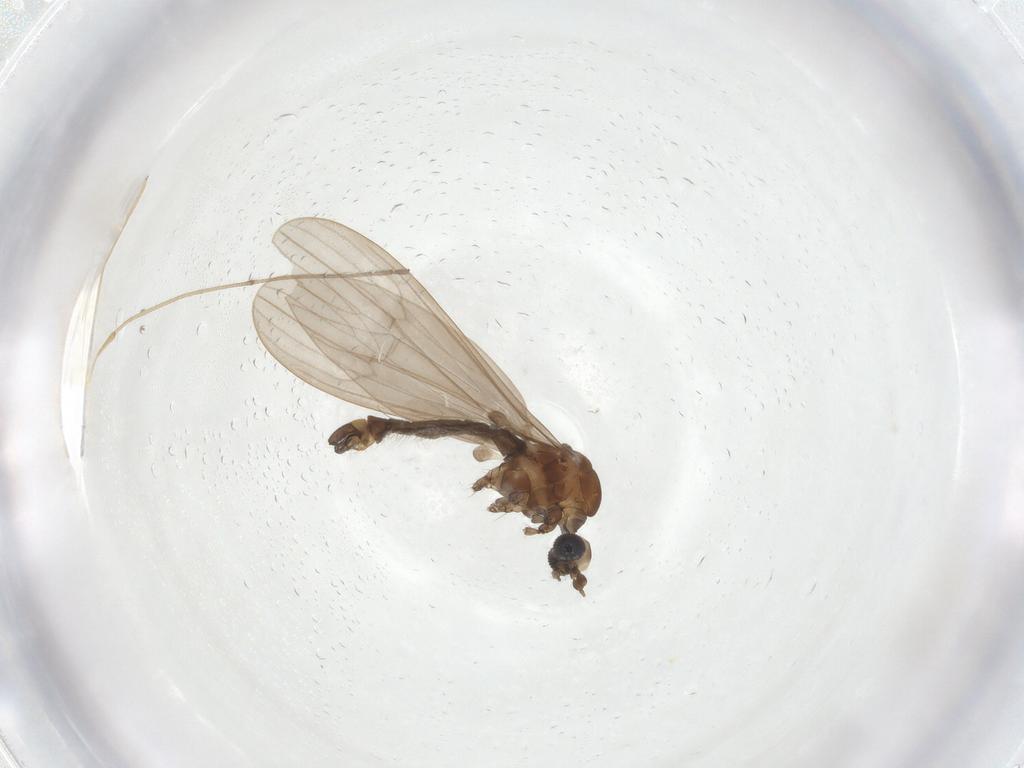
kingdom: Animalia
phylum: Arthropoda
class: Insecta
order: Diptera
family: Limoniidae
